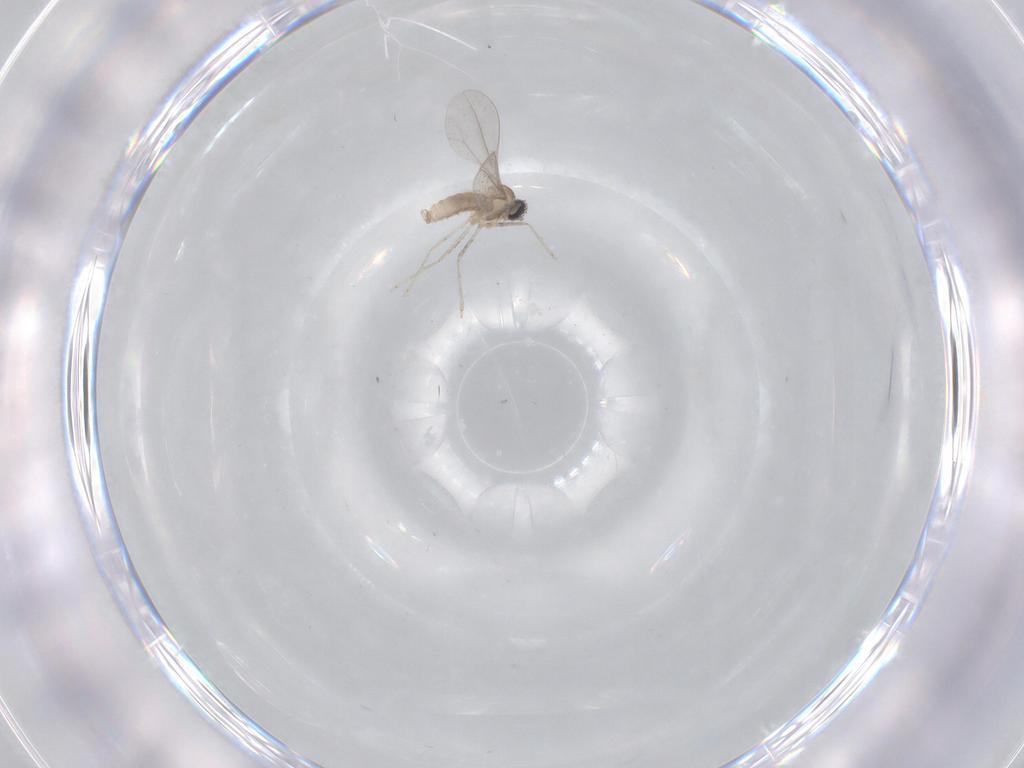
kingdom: Animalia
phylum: Arthropoda
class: Insecta
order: Diptera
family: Cecidomyiidae
